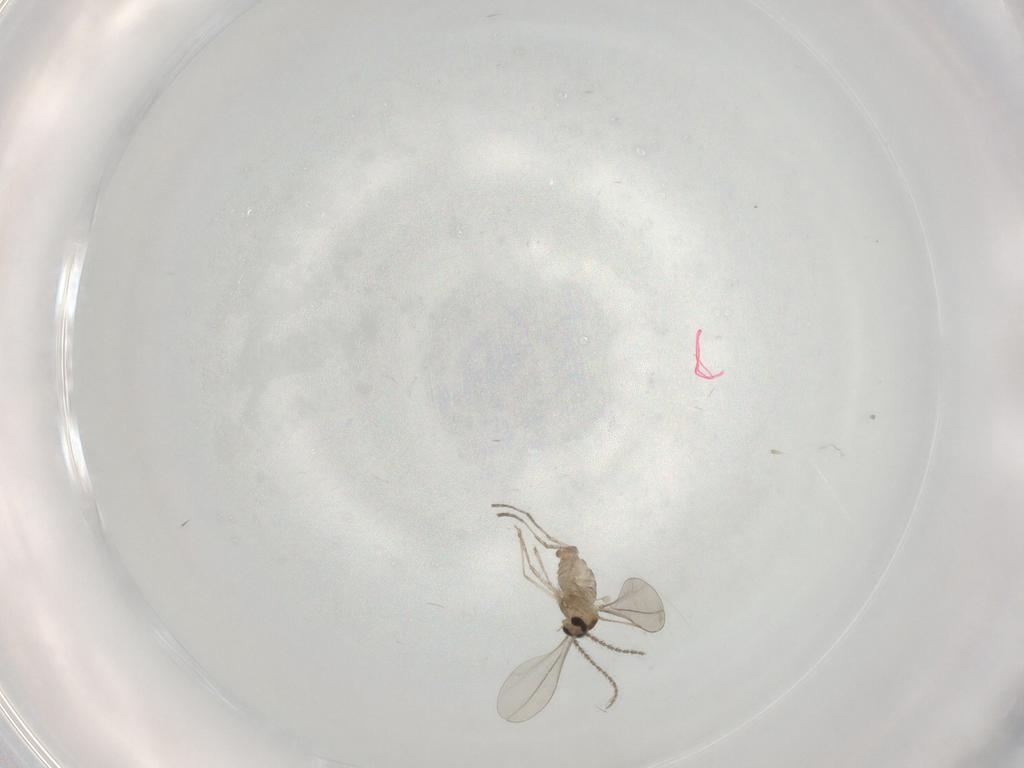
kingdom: Animalia
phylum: Arthropoda
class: Insecta
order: Diptera
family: Cecidomyiidae
